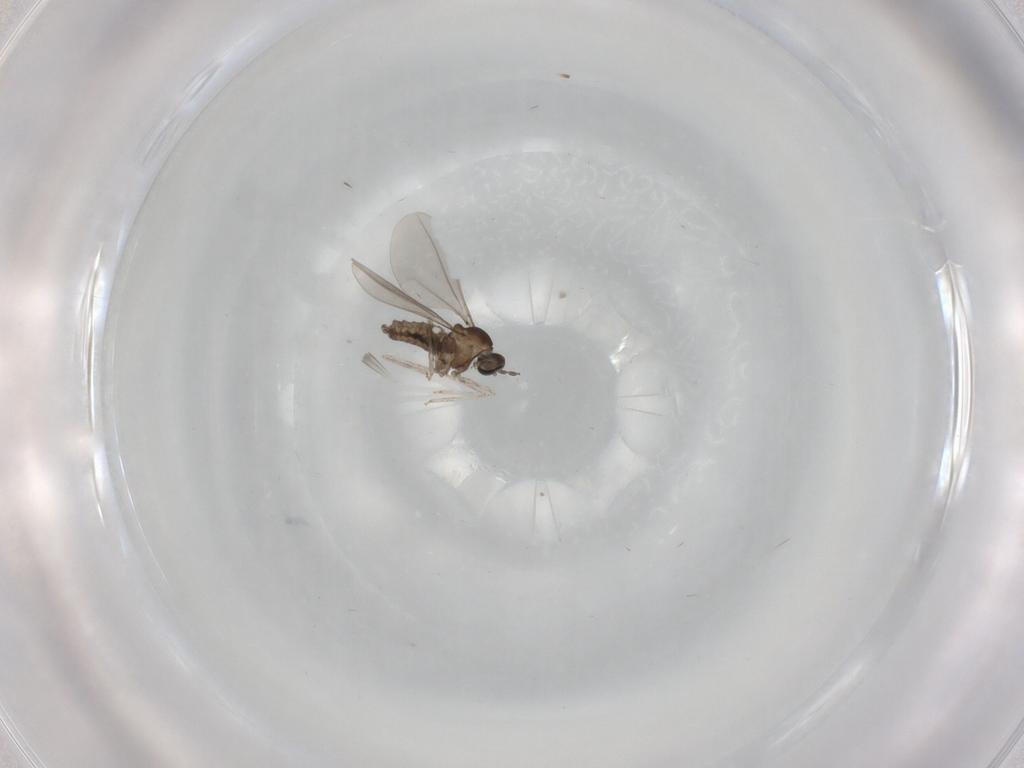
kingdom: Animalia
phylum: Arthropoda
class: Insecta
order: Diptera
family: Cecidomyiidae
